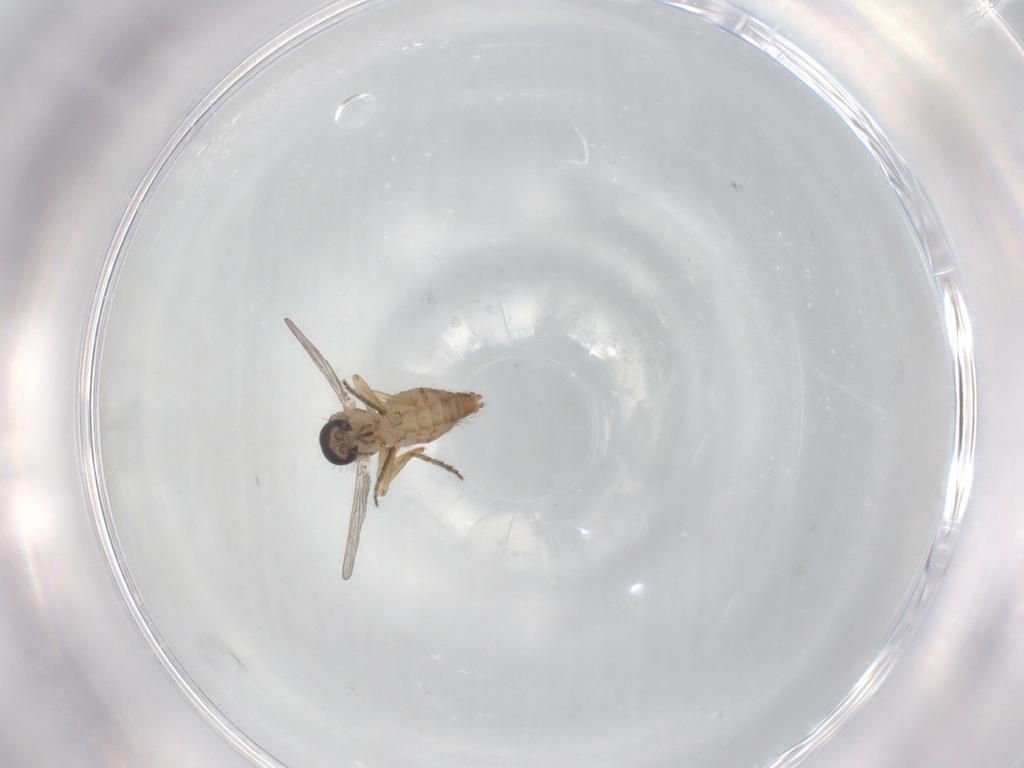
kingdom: Animalia
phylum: Arthropoda
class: Insecta
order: Diptera
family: Ceratopogonidae
